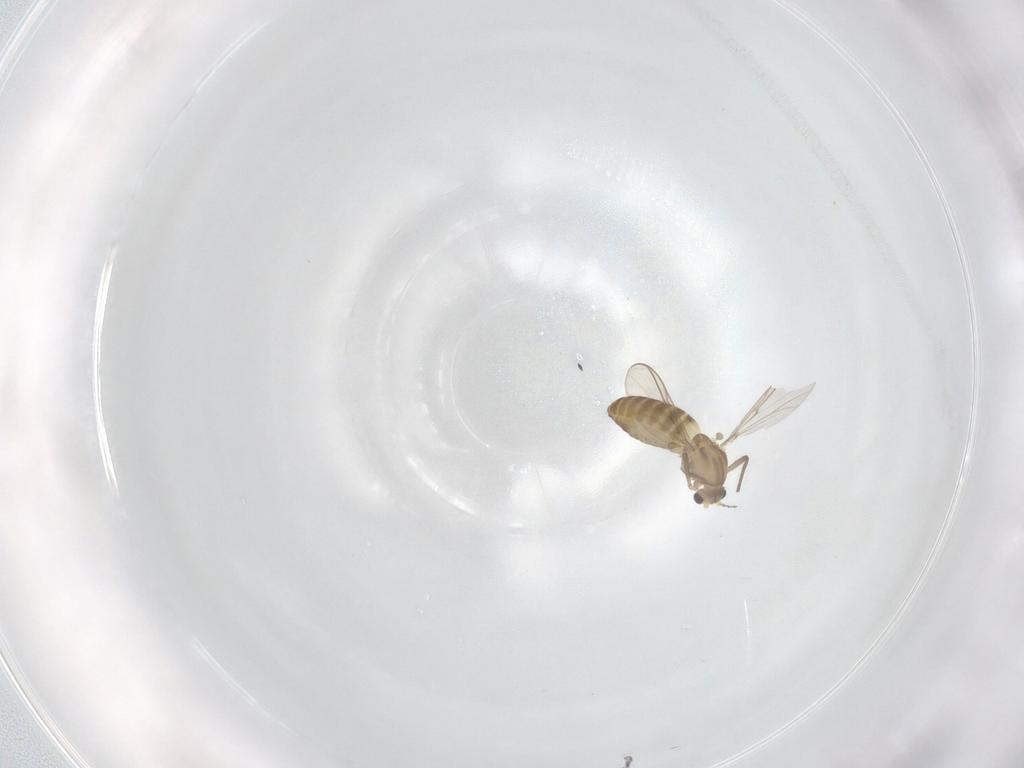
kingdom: Animalia
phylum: Arthropoda
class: Insecta
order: Diptera
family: Chironomidae
